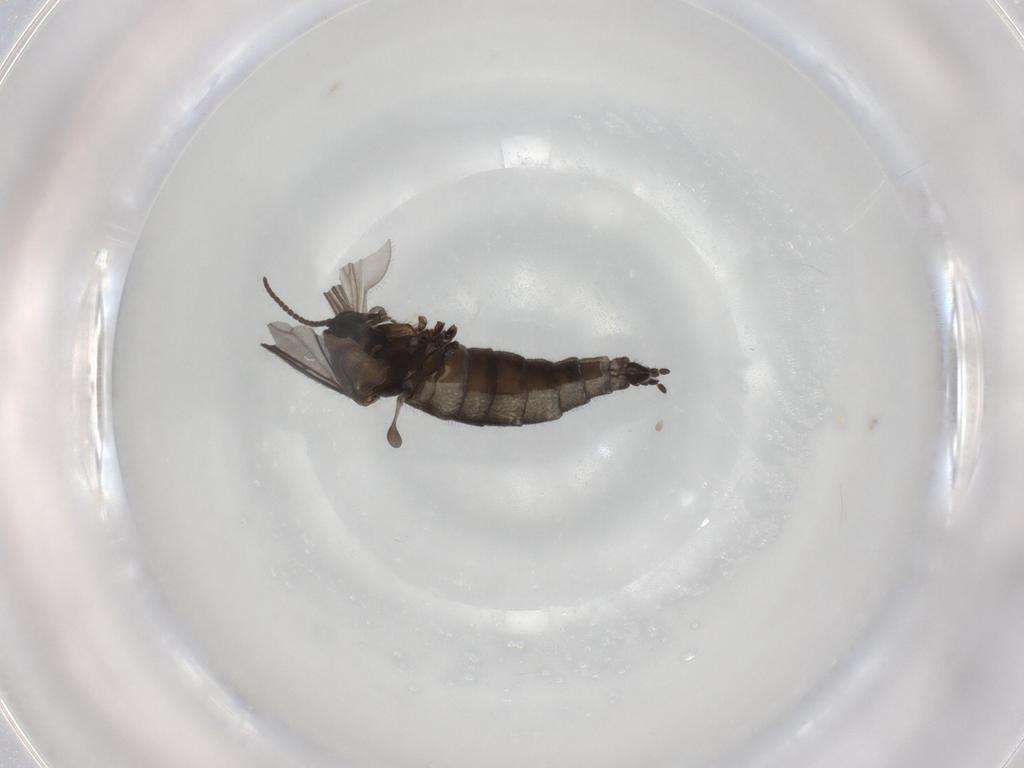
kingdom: Animalia
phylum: Arthropoda
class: Insecta
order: Diptera
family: Sciaridae
